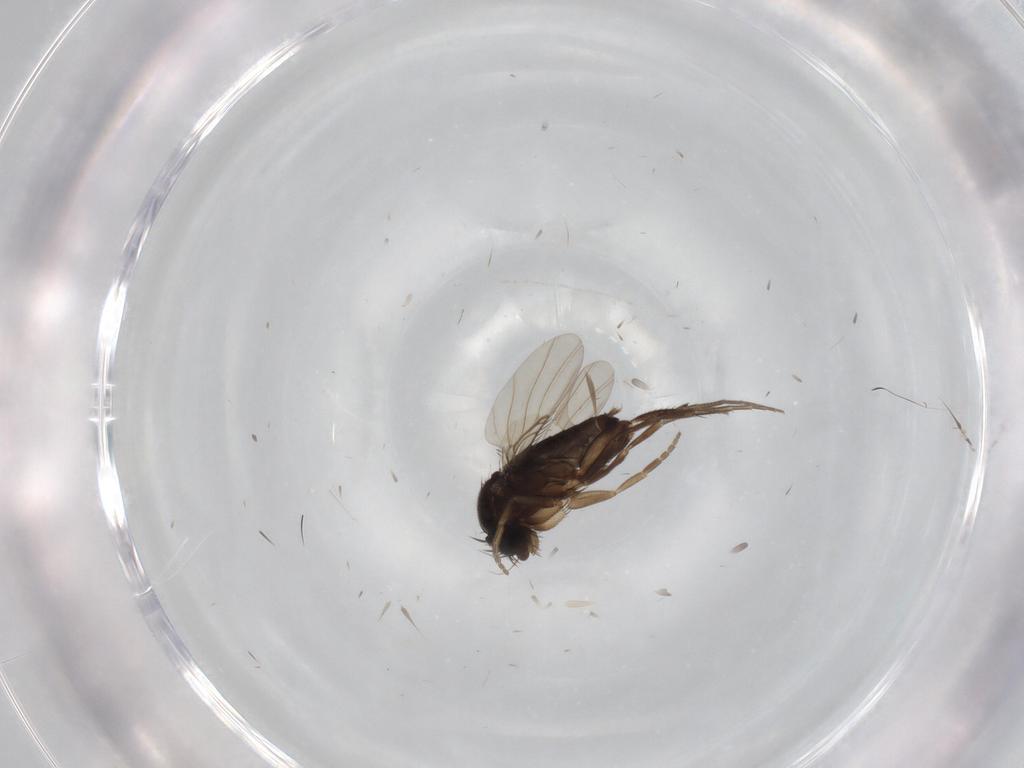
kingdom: Animalia
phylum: Arthropoda
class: Insecta
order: Diptera
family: Phoridae
